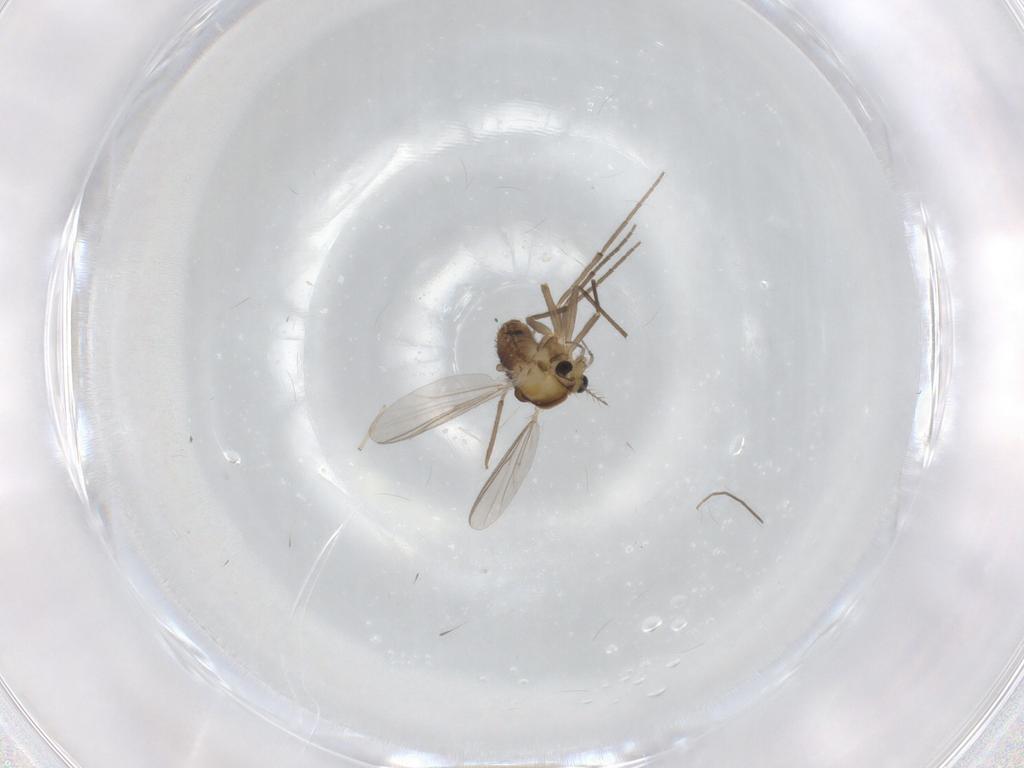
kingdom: Animalia
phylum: Arthropoda
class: Insecta
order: Diptera
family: Chironomidae
